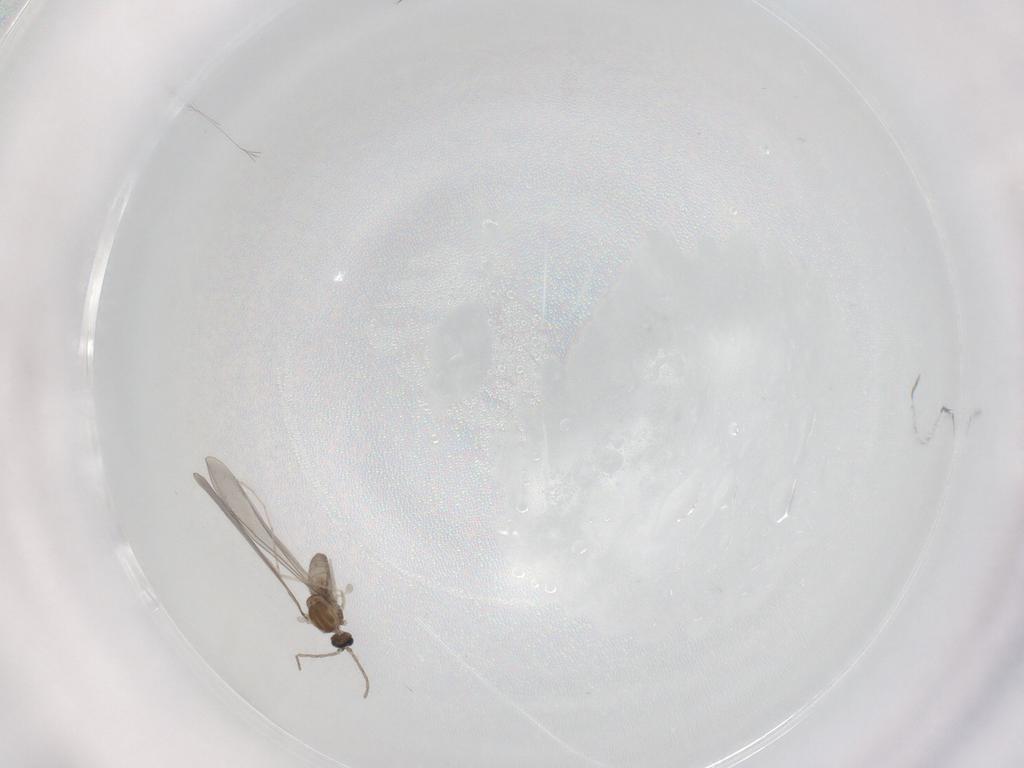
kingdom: Animalia
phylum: Arthropoda
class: Insecta
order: Diptera
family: Cecidomyiidae
